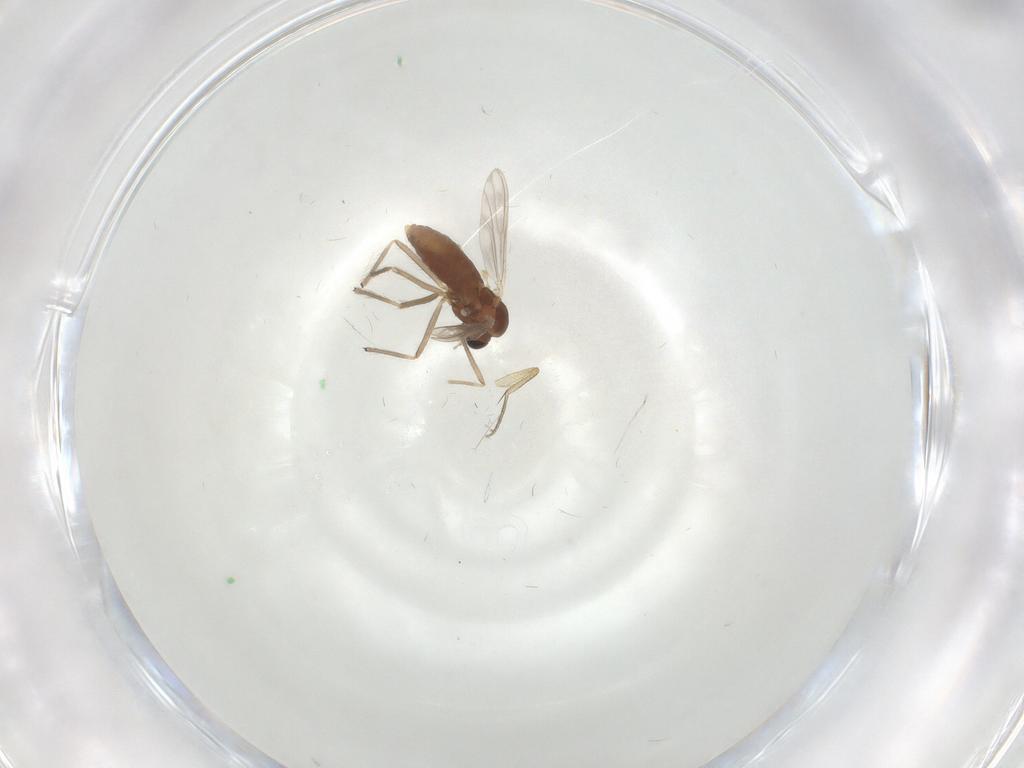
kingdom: Animalia
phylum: Arthropoda
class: Insecta
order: Diptera
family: Chironomidae
